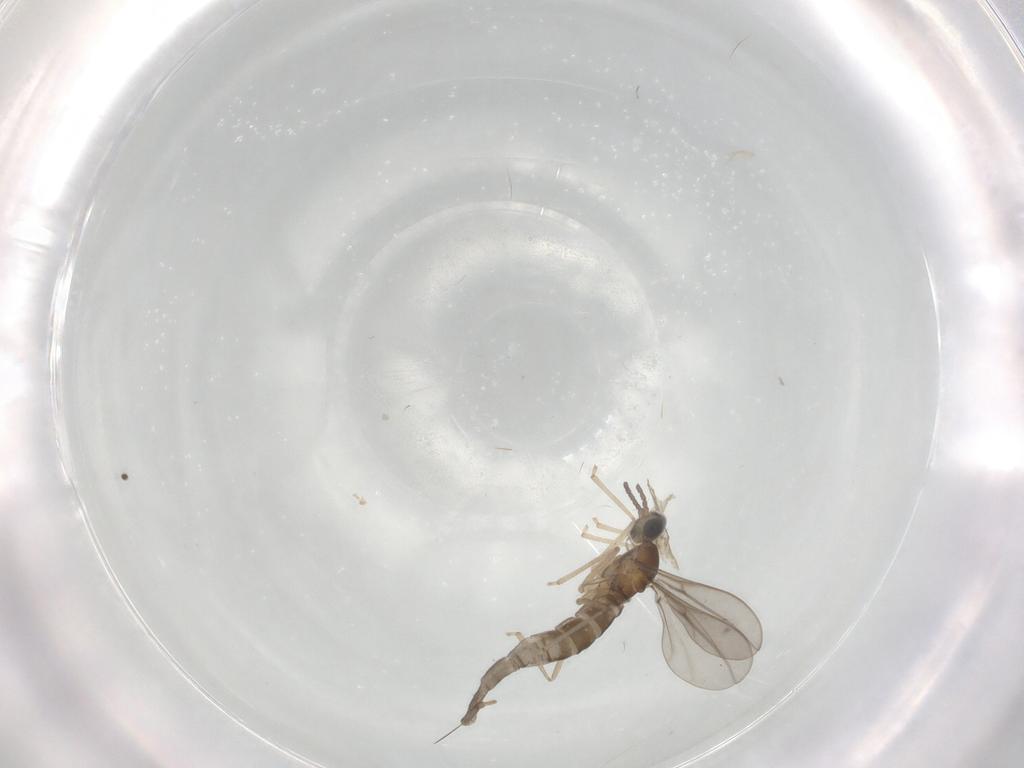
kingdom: Animalia
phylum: Arthropoda
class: Insecta
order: Diptera
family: Cecidomyiidae
